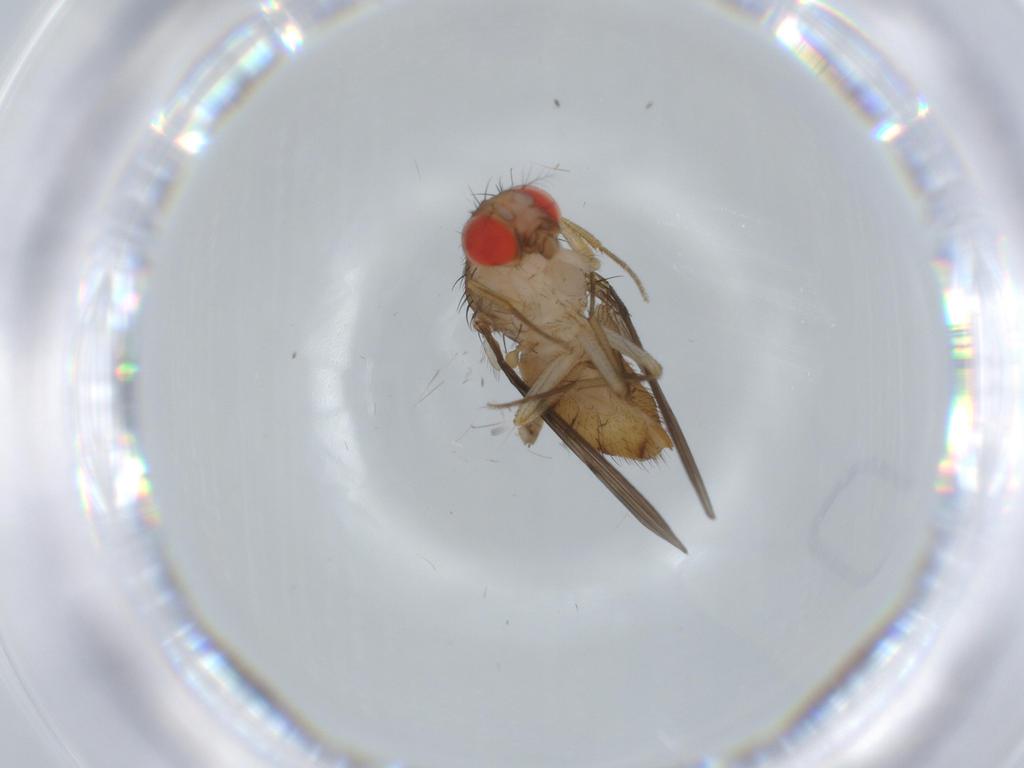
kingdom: Animalia
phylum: Arthropoda
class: Insecta
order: Diptera
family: Drosophilidae
